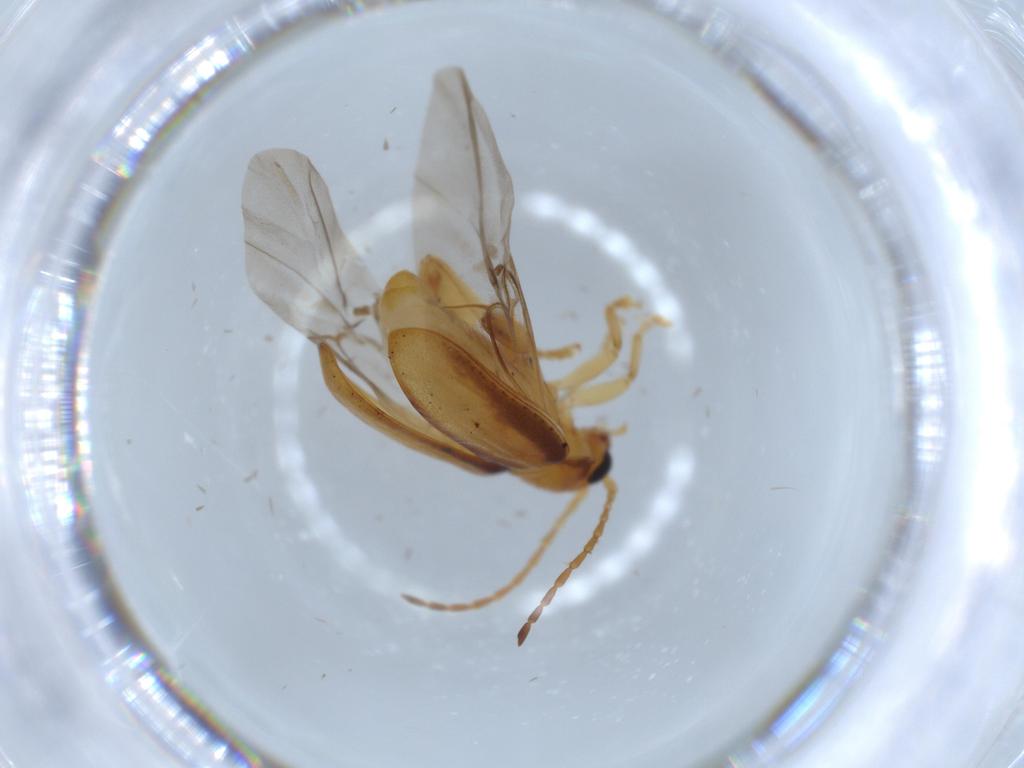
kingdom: Animalia
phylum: Arthropoda
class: Insecta
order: Coleoptera
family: Chrysomelidae
